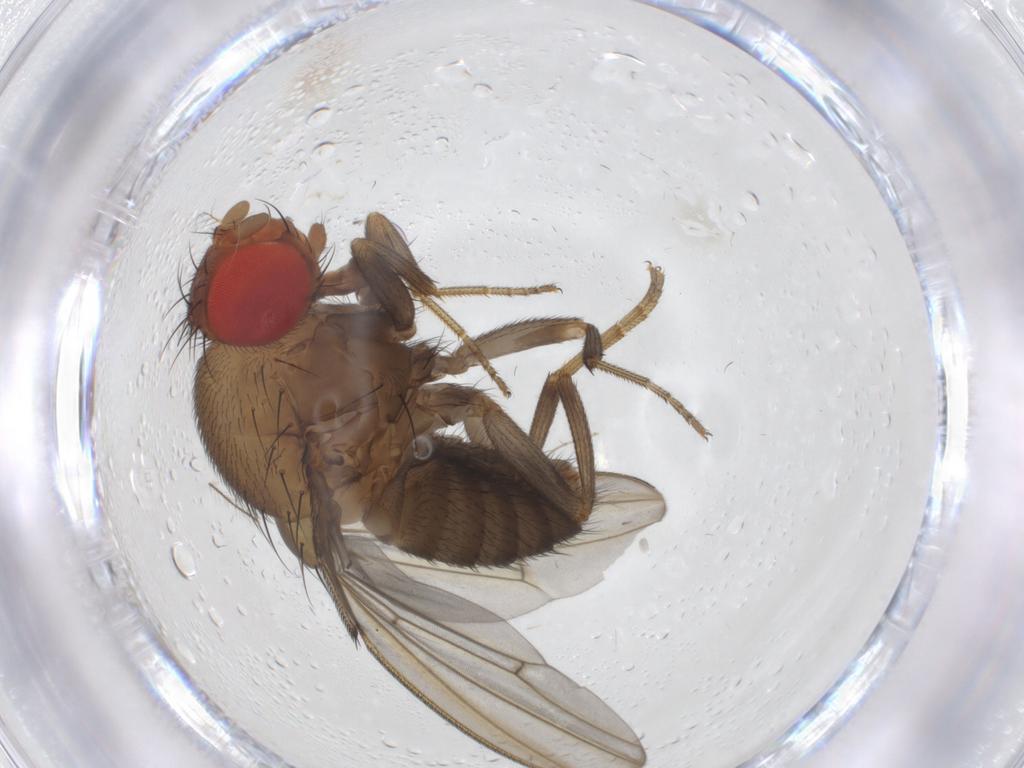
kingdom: Animalia
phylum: Arthropoda
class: Insecta
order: Diptera
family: Drosophilidae
